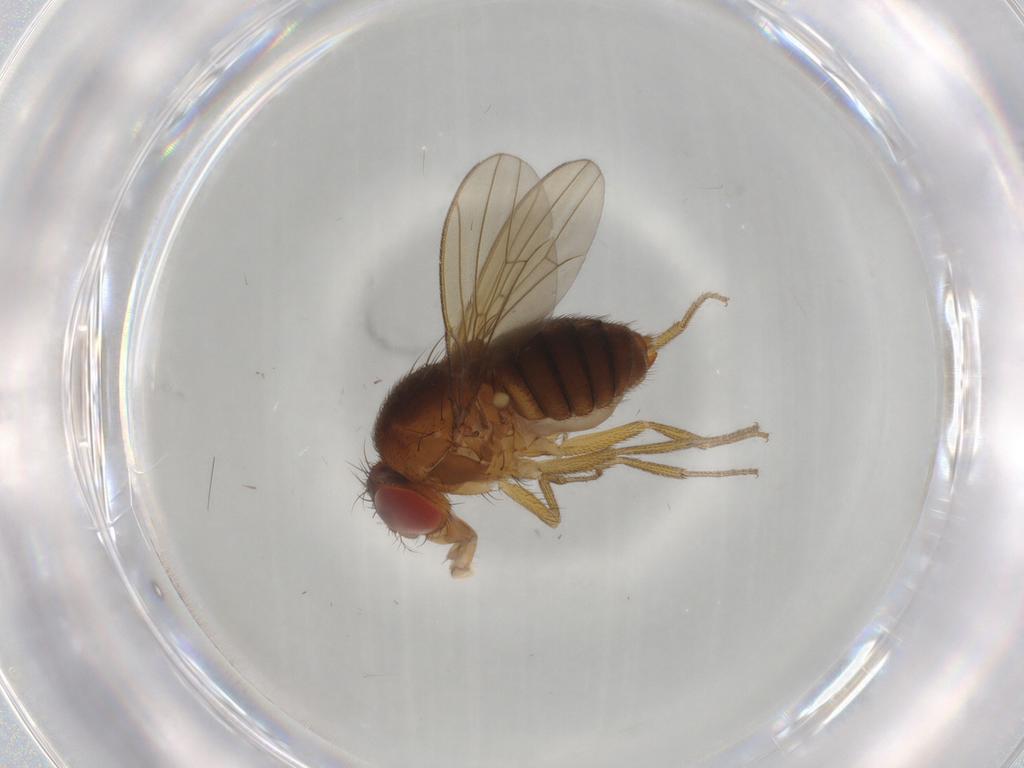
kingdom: Animalia
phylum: Arthropoda
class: Insecta
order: Diptera
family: Drosophilidae
